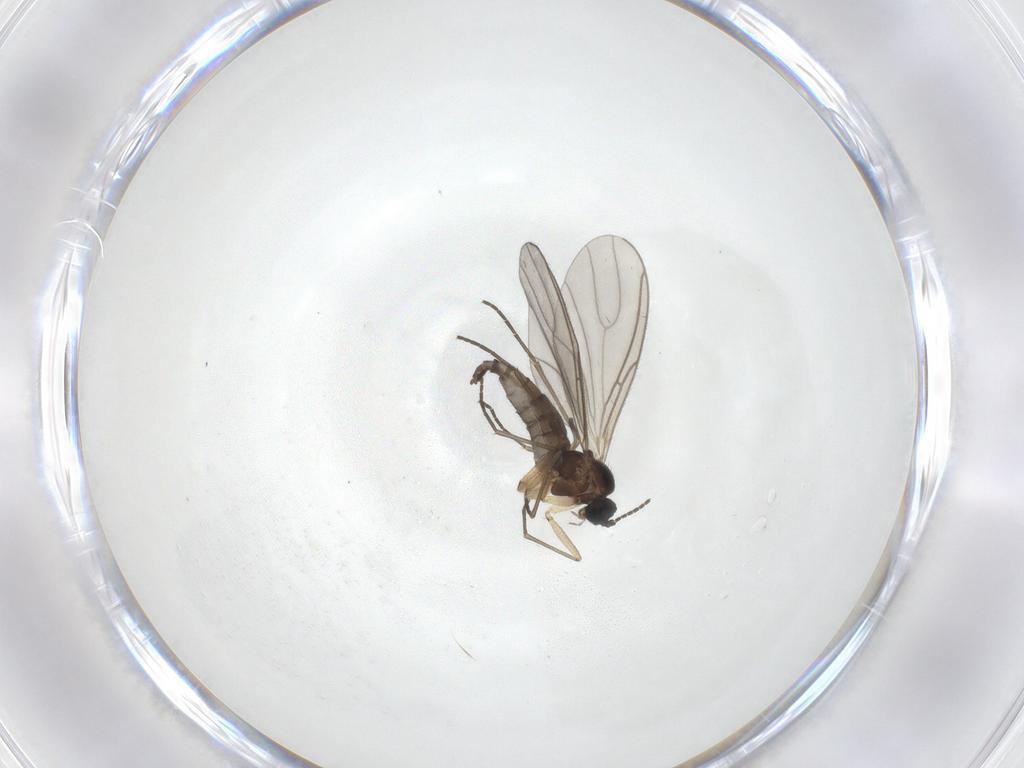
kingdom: Animalia
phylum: Arthropoda
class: Insecta
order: Diptera
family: Sciaridae
